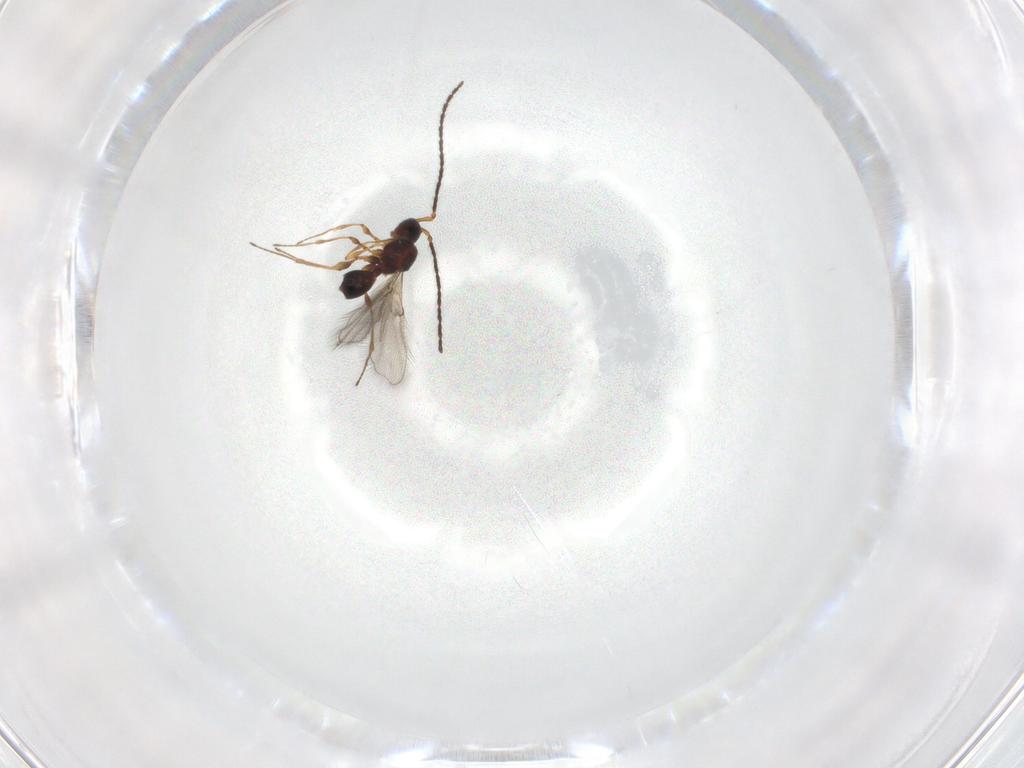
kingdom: Animalia
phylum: Arthropoda
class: Insecta
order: Hymenoptera
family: Diapriidae
